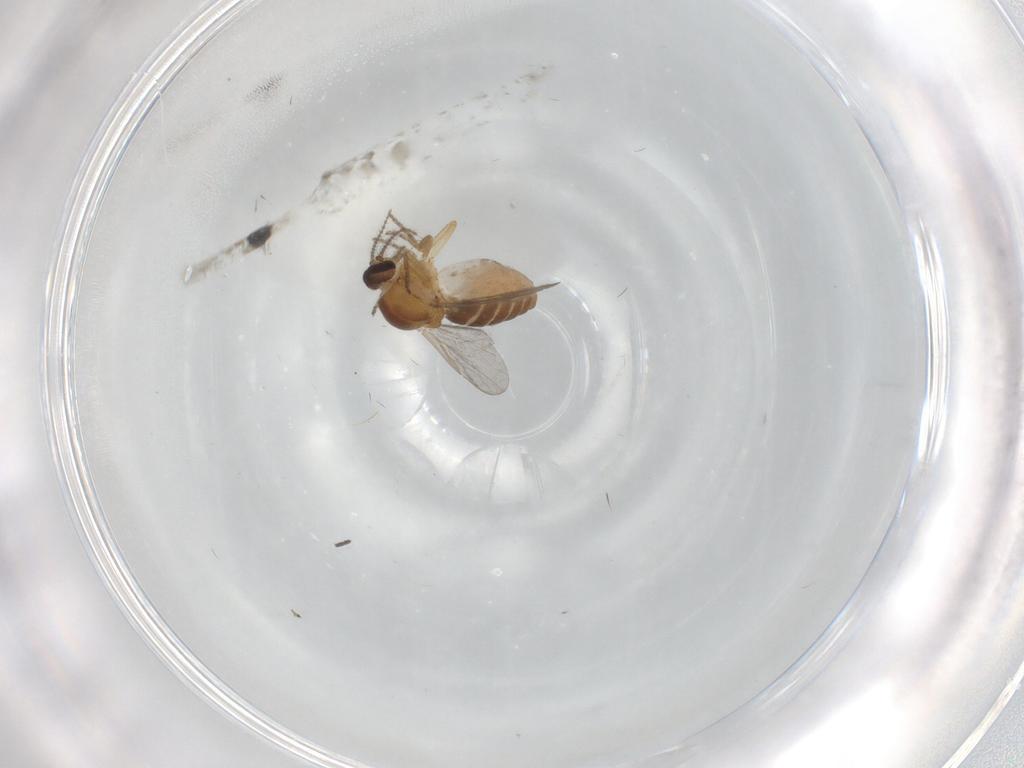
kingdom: Animalia
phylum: Arthropoda
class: Insecta
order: Diptera
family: Ceratopogonidae
